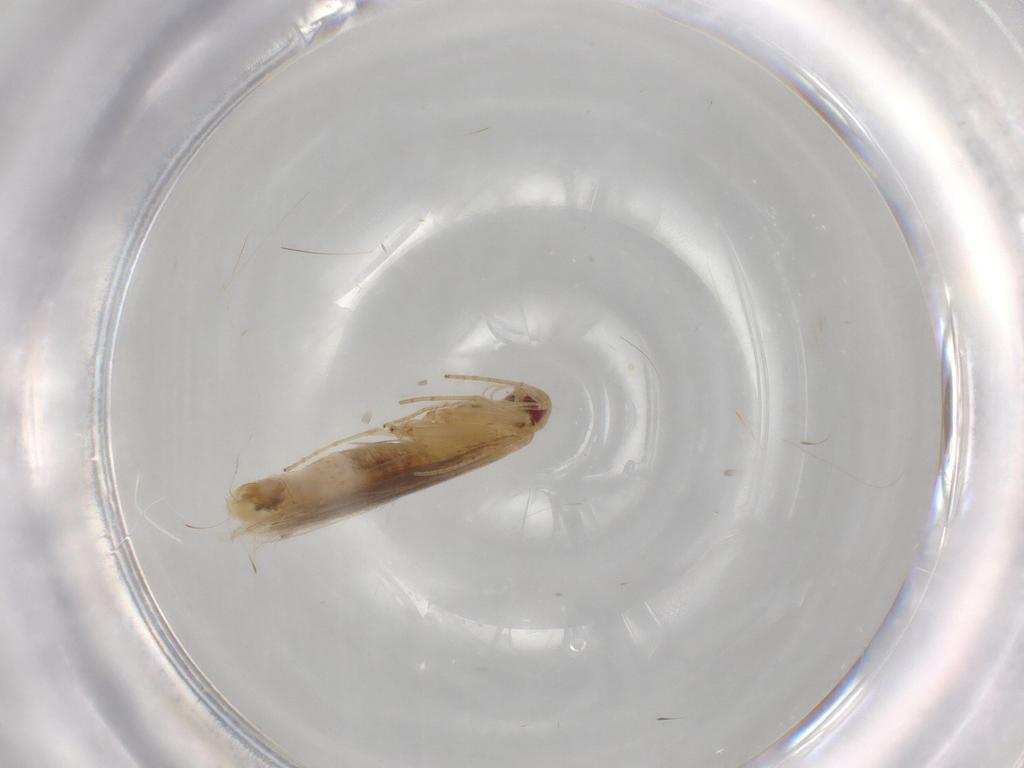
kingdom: Animalia
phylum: Arthropoda
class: Insecta
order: Lepidoptera
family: Cosmopterigidae
